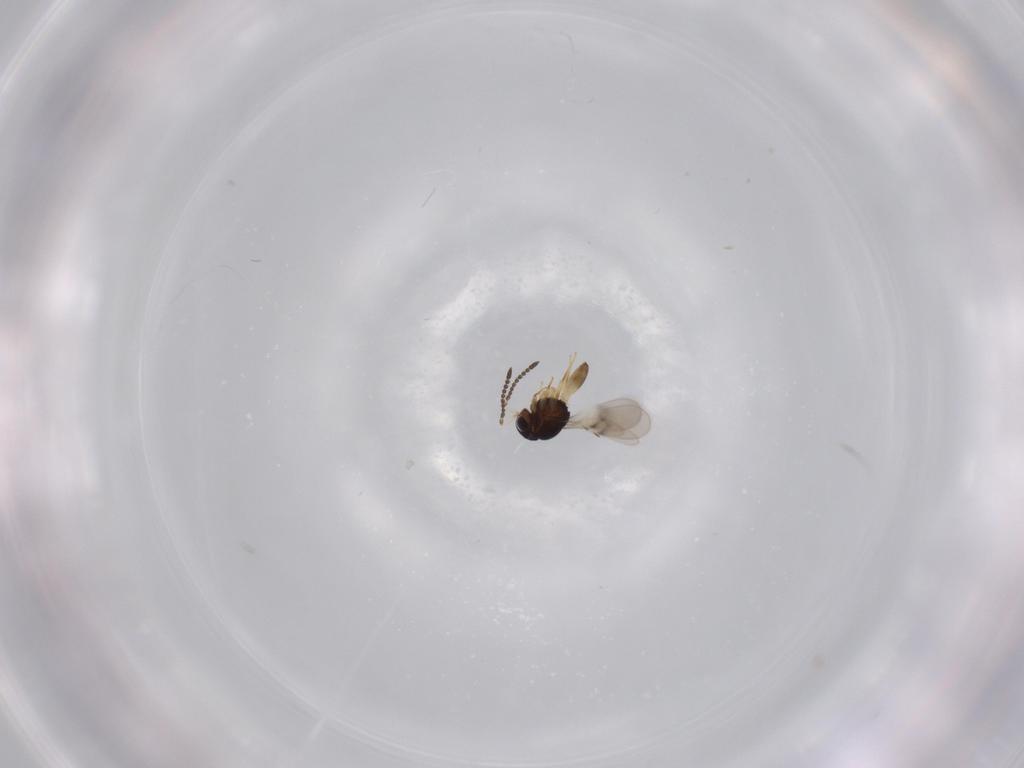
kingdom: Animalia
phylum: Arthropoda
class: Insecta
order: Hymenoptera
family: Scelionidae
